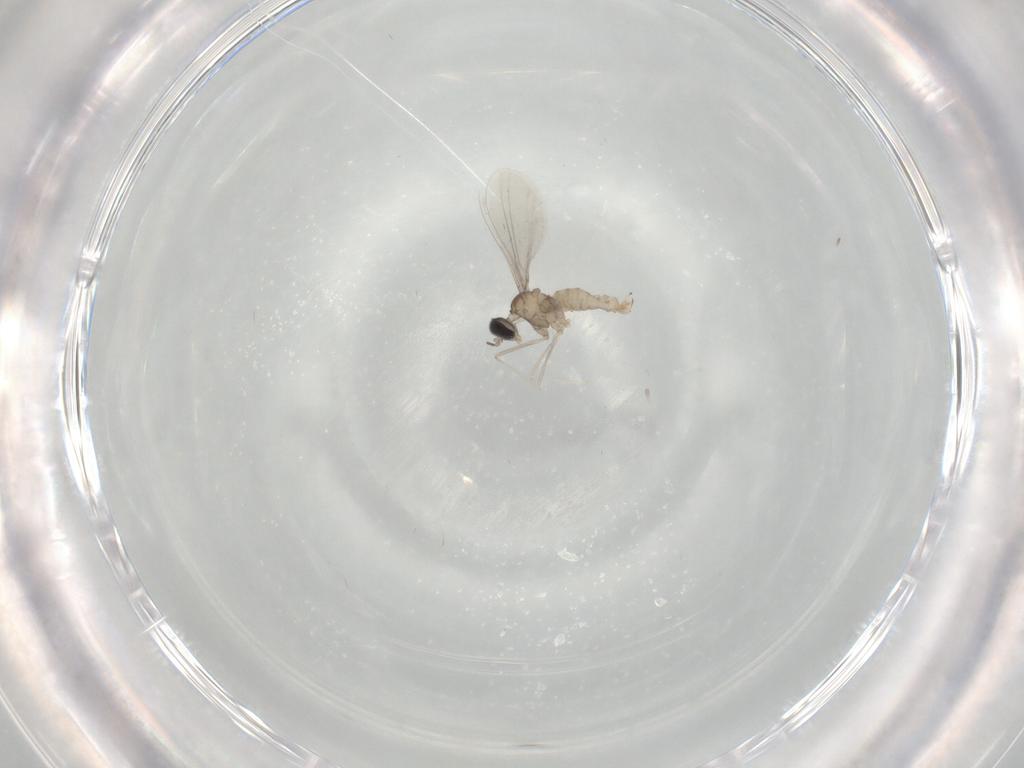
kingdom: Animalia
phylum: Arthropoda
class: Insecta
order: Diptera
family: Cecidomyiidae
